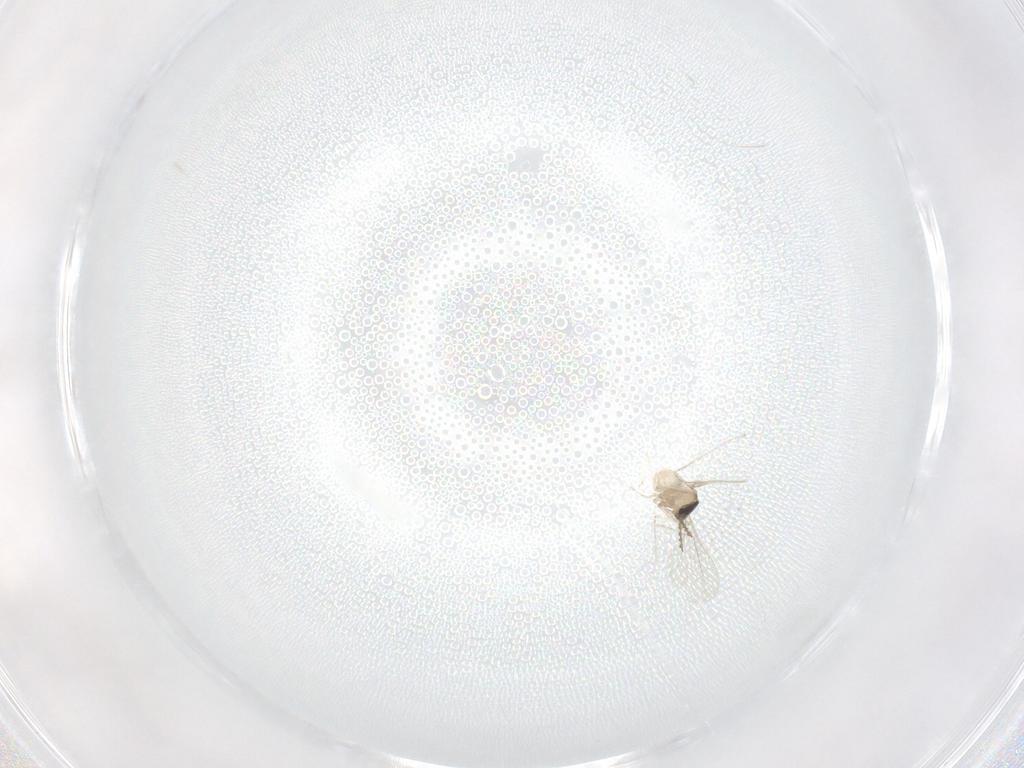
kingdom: Animalia
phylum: Arthropoda
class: Insecta
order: Diptera
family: Cecidomyiidae
